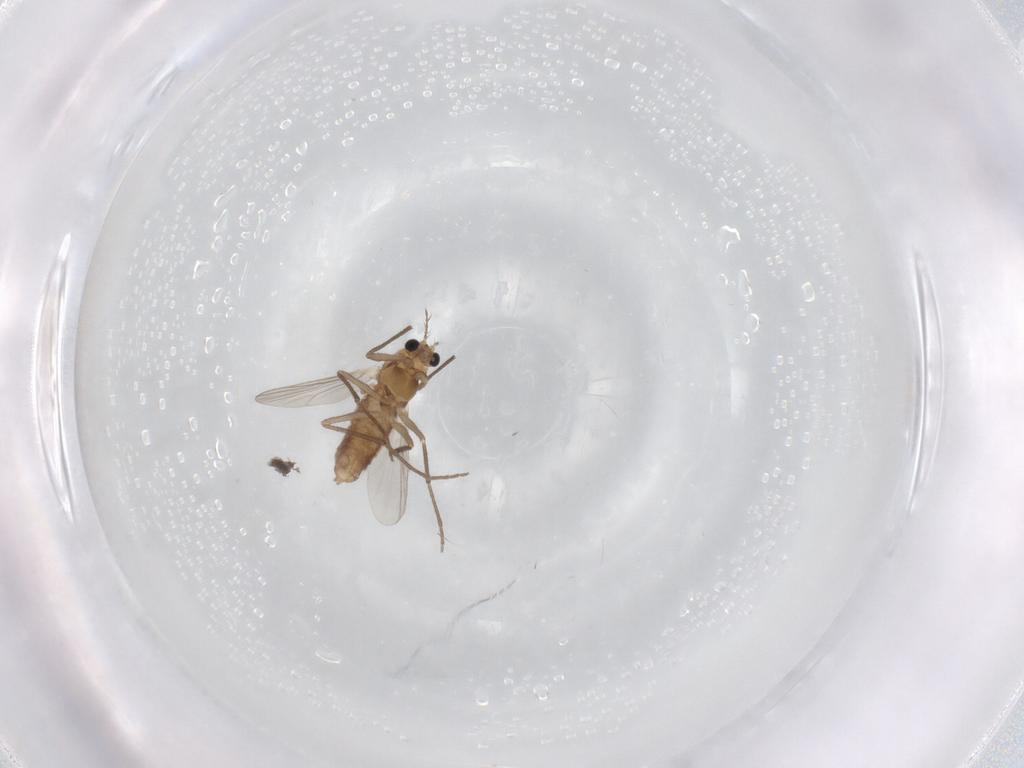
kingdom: Animalia
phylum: Arthropoda
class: Insecta
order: Diptera
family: Chironomidae
